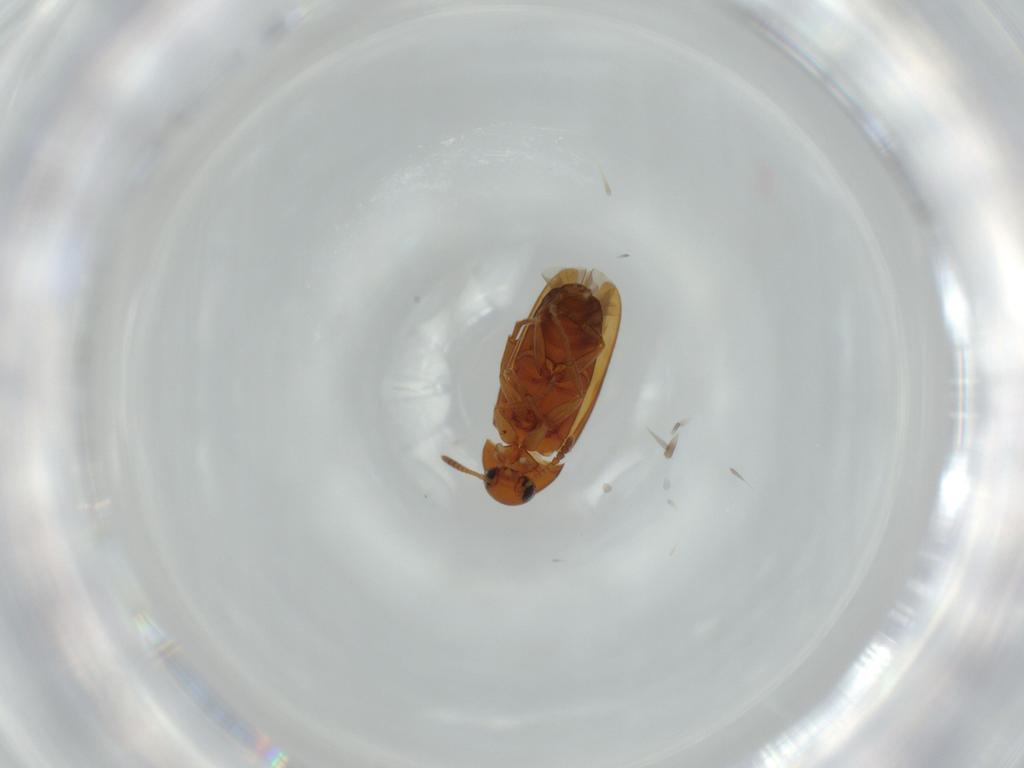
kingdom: Animalia
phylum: Arthropoda
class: Insecta
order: Coleoptera
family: Scraptiidae
